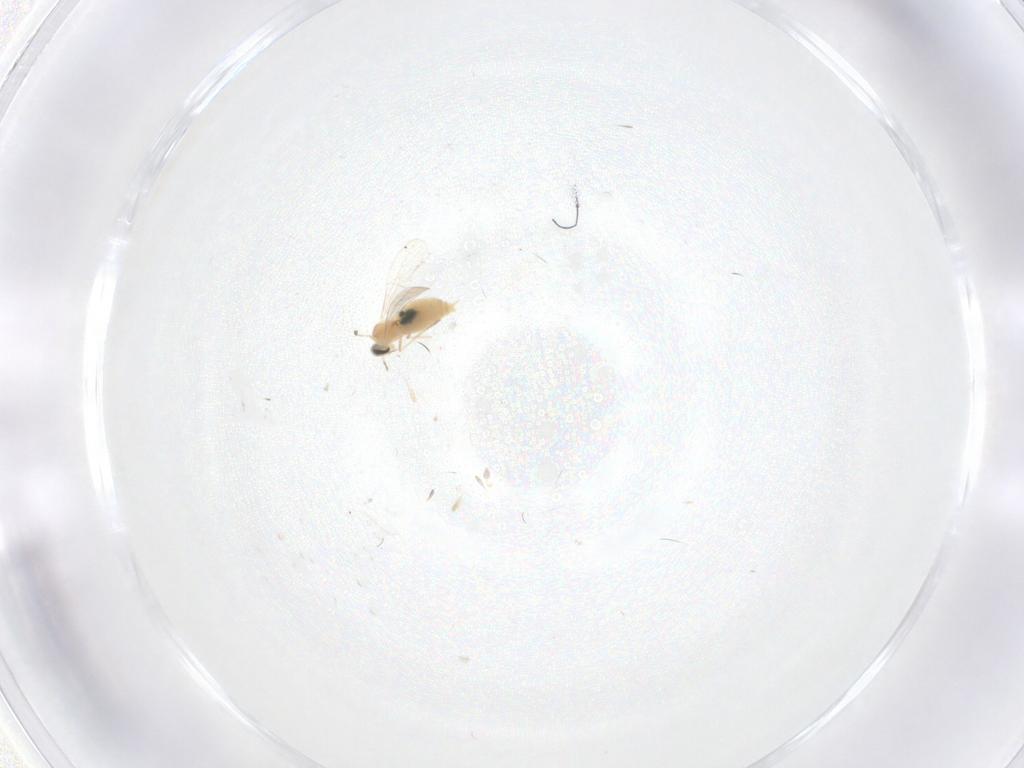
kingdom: Animalia
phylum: Arthropoda
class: Insecta
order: Diptera
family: Cecidomyiidae
